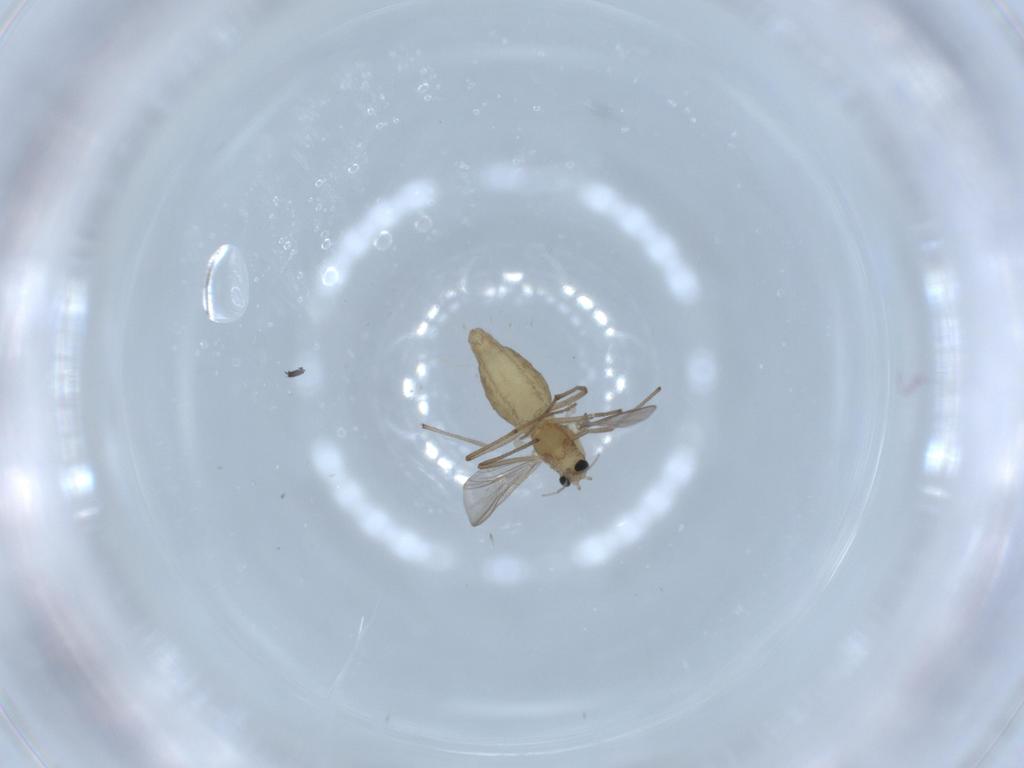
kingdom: Animalia
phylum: Arthropoda
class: Insecta
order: Diptera
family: Chironomidae
